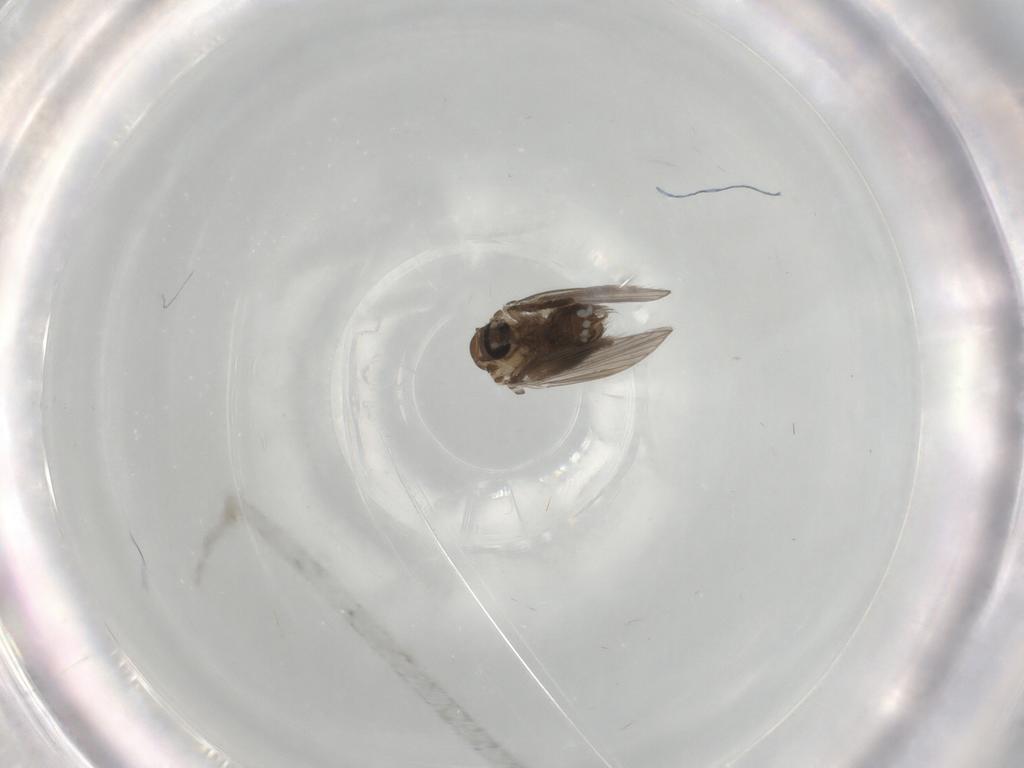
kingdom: Animalia
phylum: Arthropoda
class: Insecta
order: Diptera
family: Psychodidae
